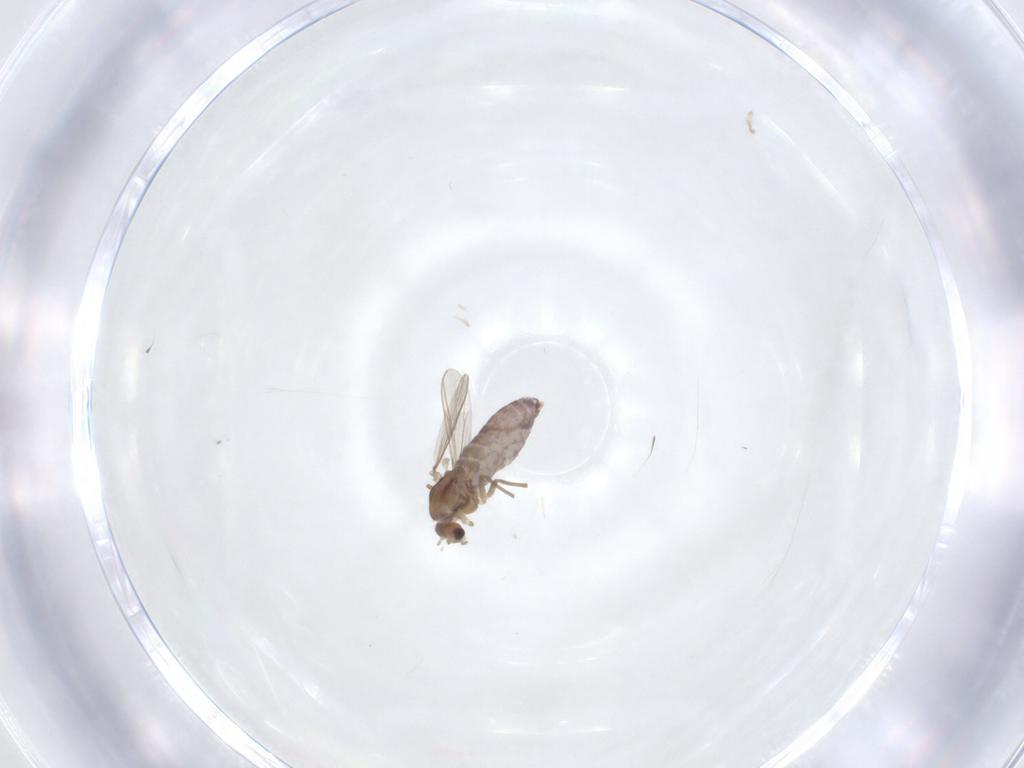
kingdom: Animalia
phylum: Arthropoda
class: Insecta
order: Diptera
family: Chironomidae
